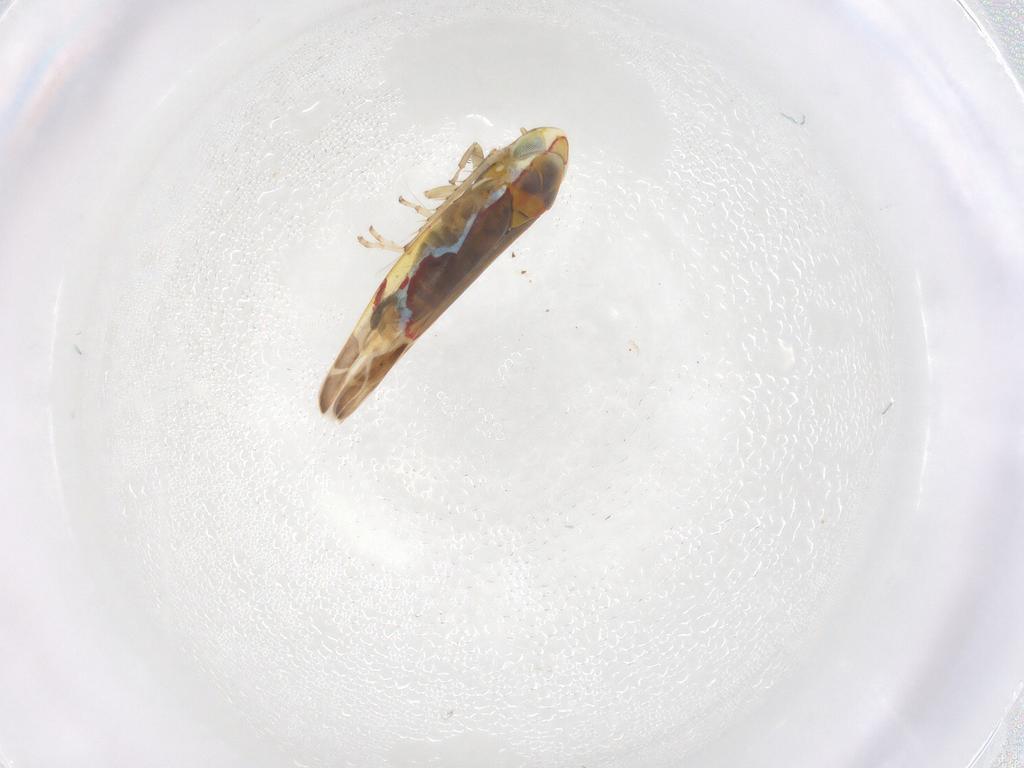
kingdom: Animalia
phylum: Arthropoda
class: Insecta
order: Hemiptera
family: Cicadellidae
